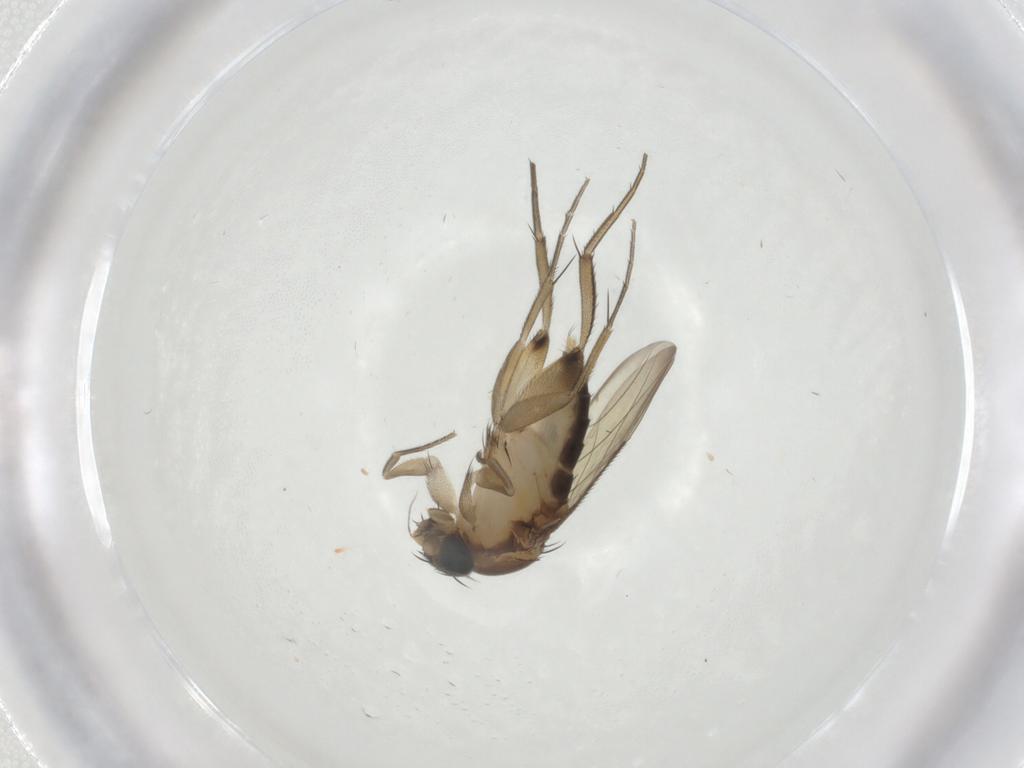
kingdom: Animalia
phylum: Arthropoda
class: Insecta
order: Diptera
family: Phoridae
